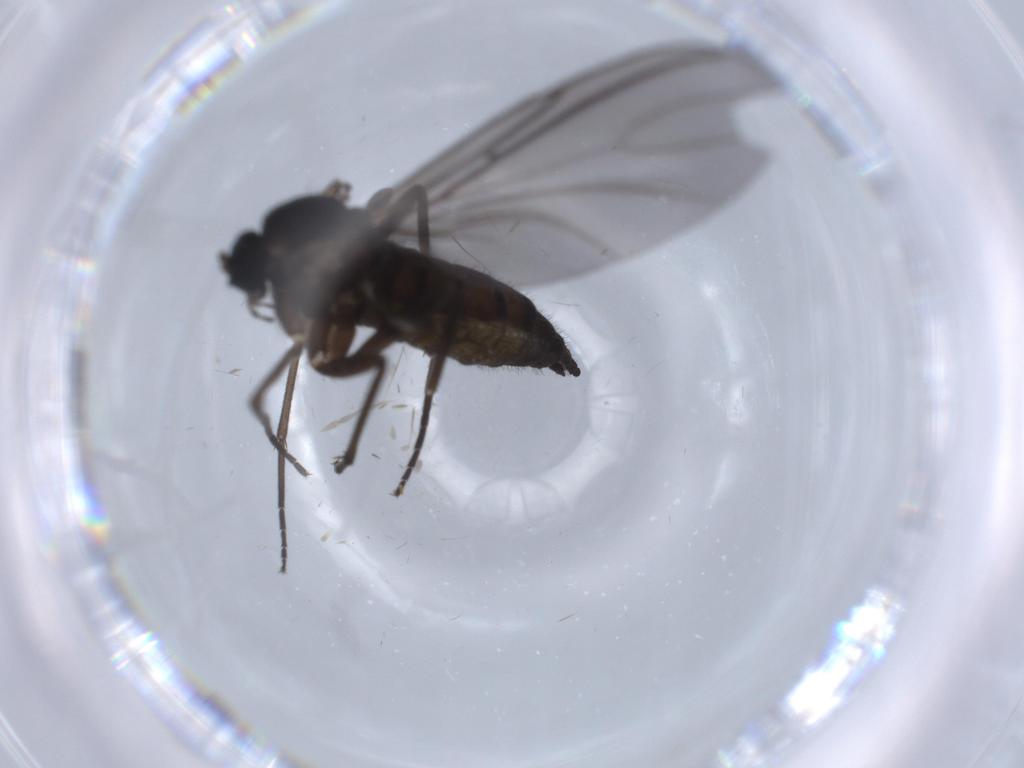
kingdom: Animalia
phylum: Arthropoda
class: Insecta
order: Diptera
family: Sciaridae
